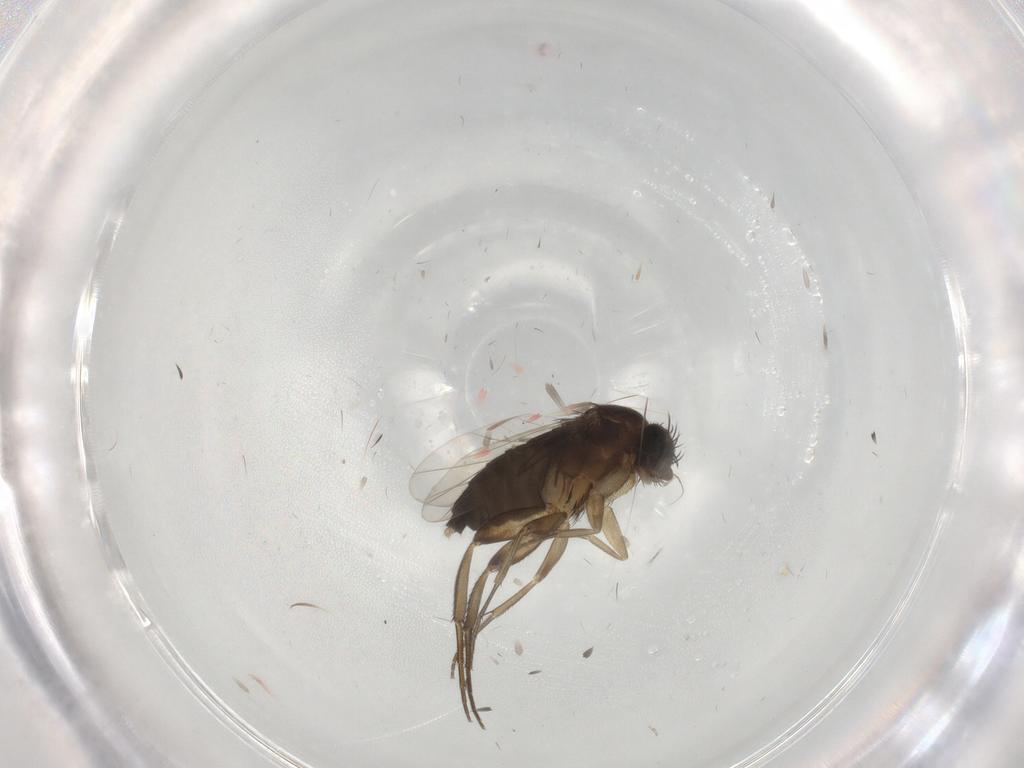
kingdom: Animalia
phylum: Arthropoda
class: Insecta
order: Diptera
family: Phoridae
